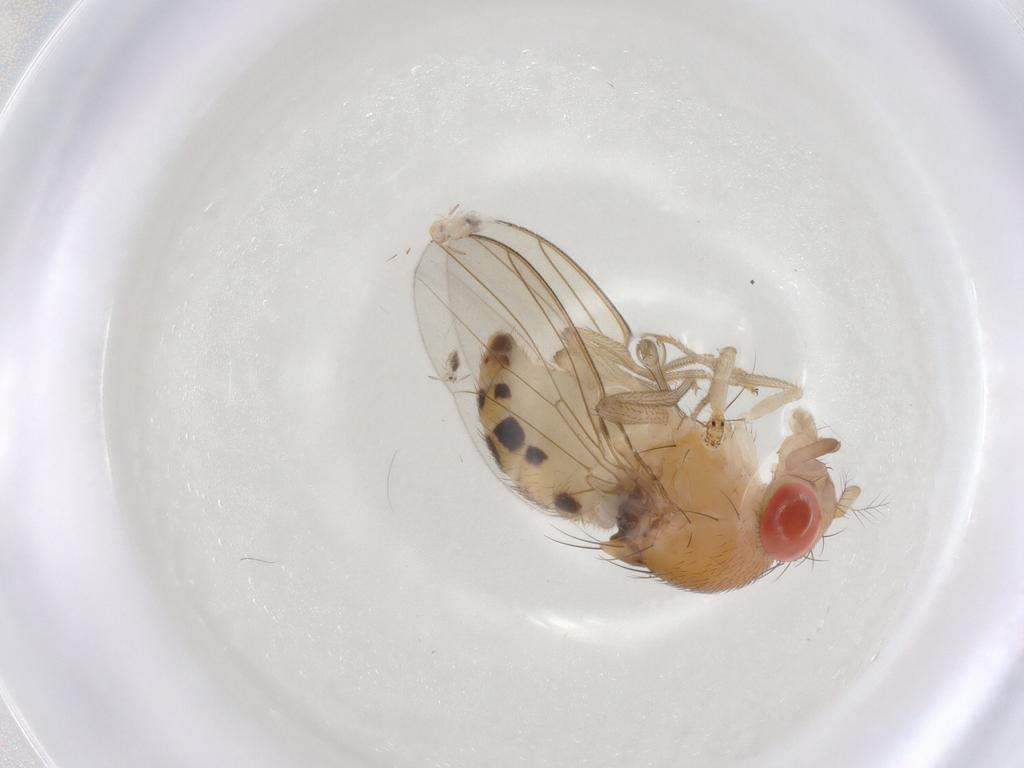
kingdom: Animalia
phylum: Arthropoda
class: Insecta
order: Diptera
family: Drosophilidae
